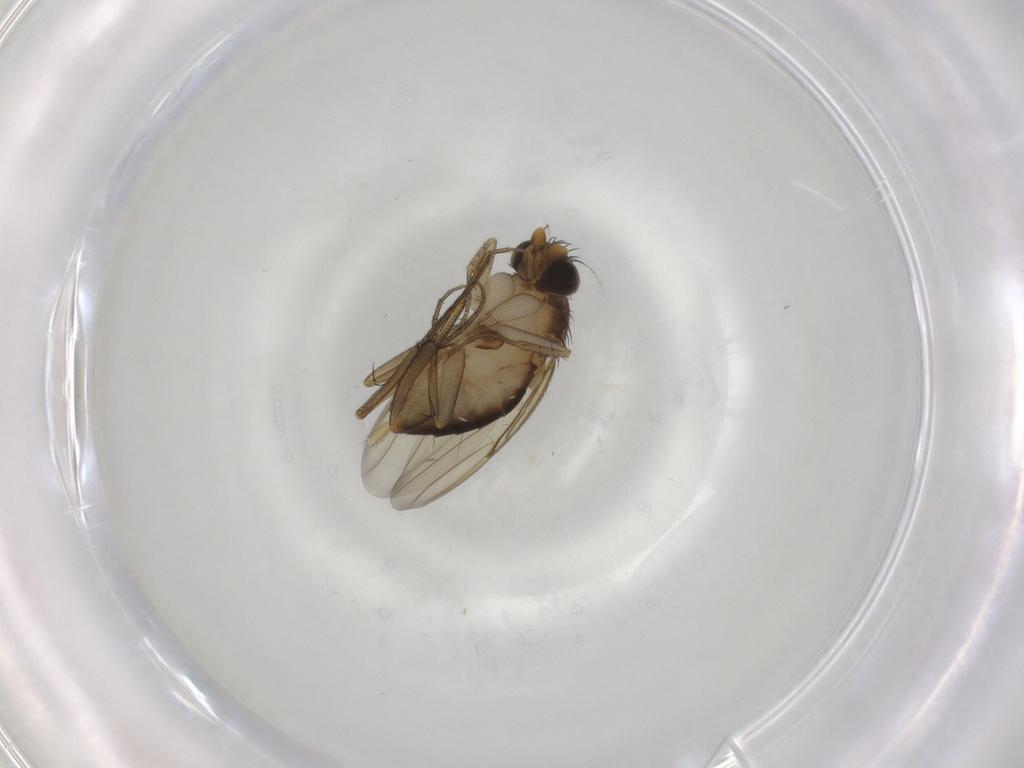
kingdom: Animalia
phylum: Arthropoda
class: Insecta
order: Diptera
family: Phoridae
